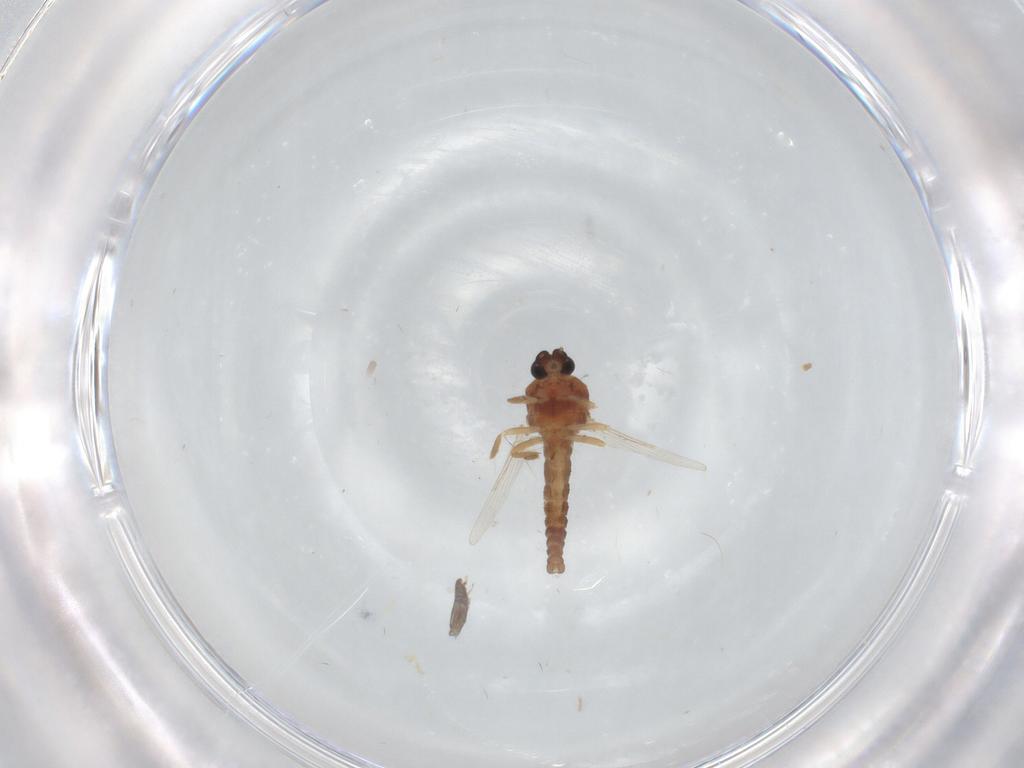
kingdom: Animalia
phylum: Arthropoda
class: Insecta
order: Diptera
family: Ceratopogonidae
